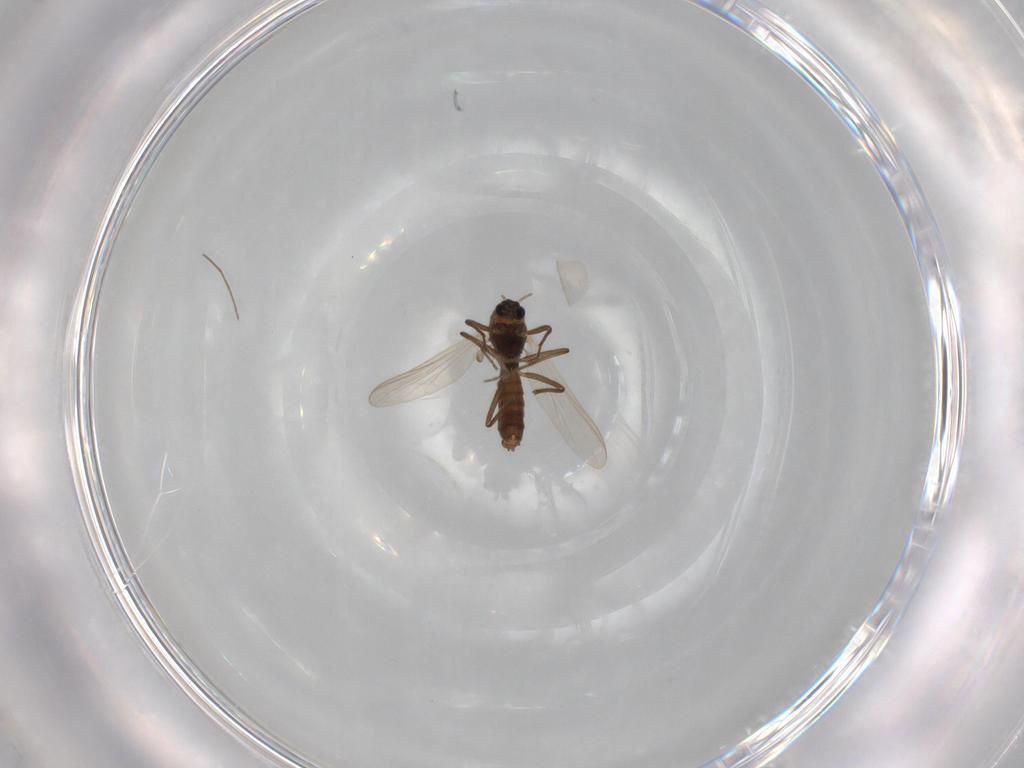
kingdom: Animalia
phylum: Arthropoda
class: Insecta
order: Diptera
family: Chironomidae
